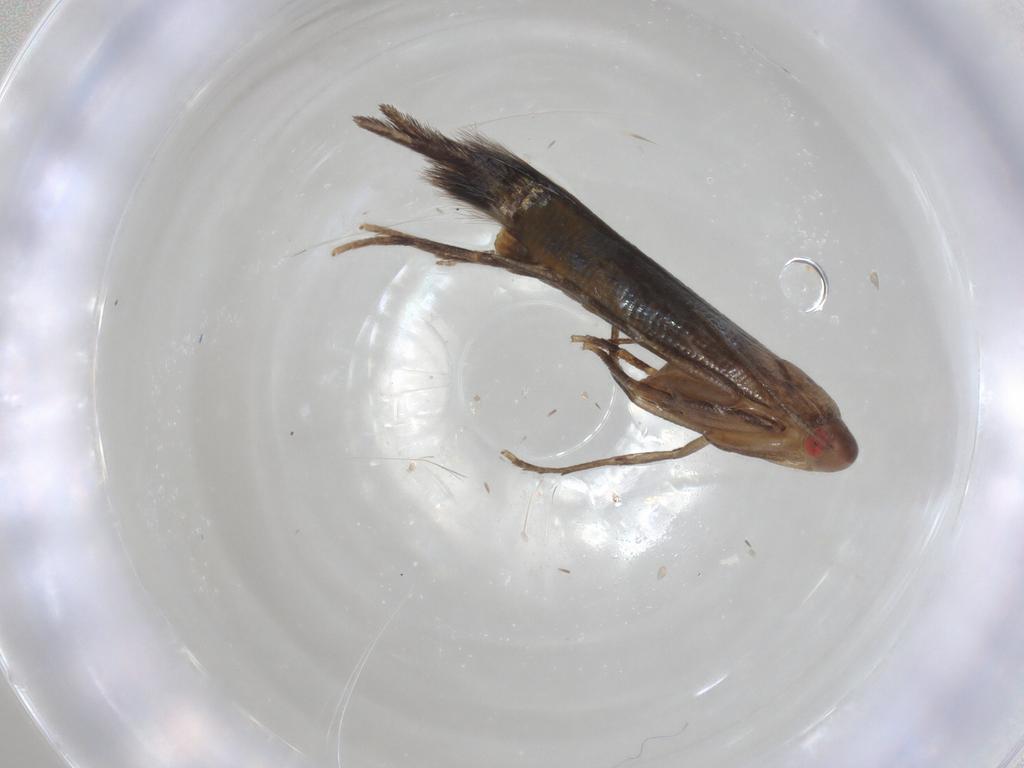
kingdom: Animalia
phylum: Arthropoda
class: Insecta
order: Lepidoptera
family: Cosmopterigidae
